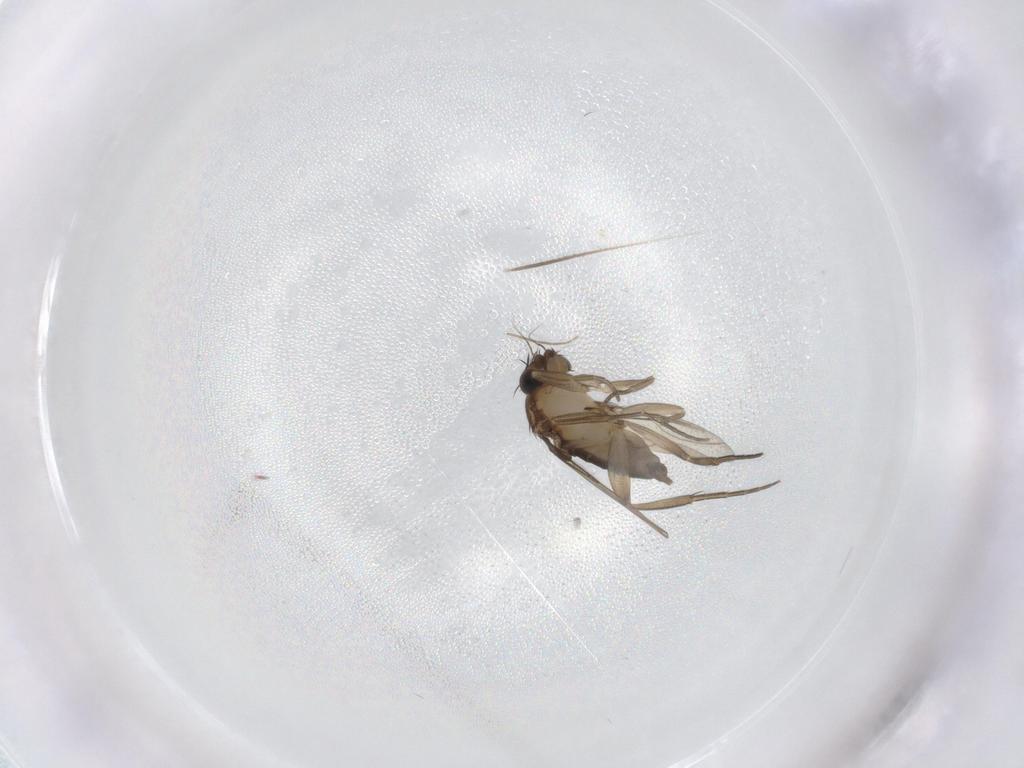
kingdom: Animalia
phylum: Arthropoda
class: Insecta
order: Diptera
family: Phoridae
